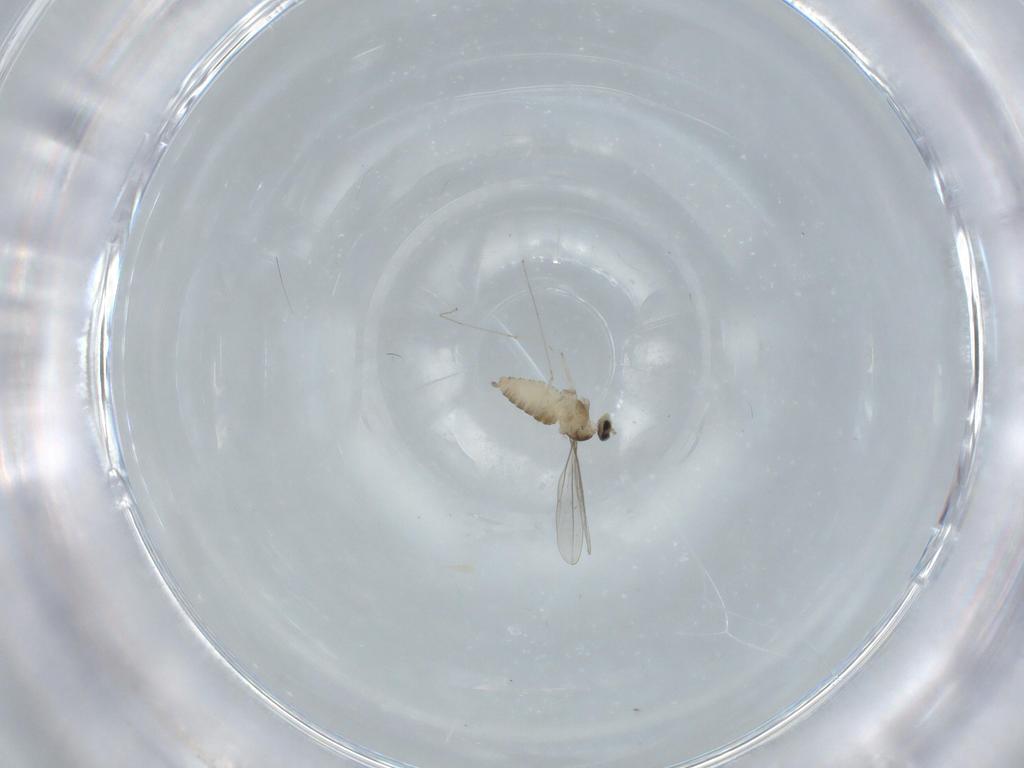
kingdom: Animalia
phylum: Arthropoda
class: Insecta
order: Diptera
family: Cecidomyiidae
